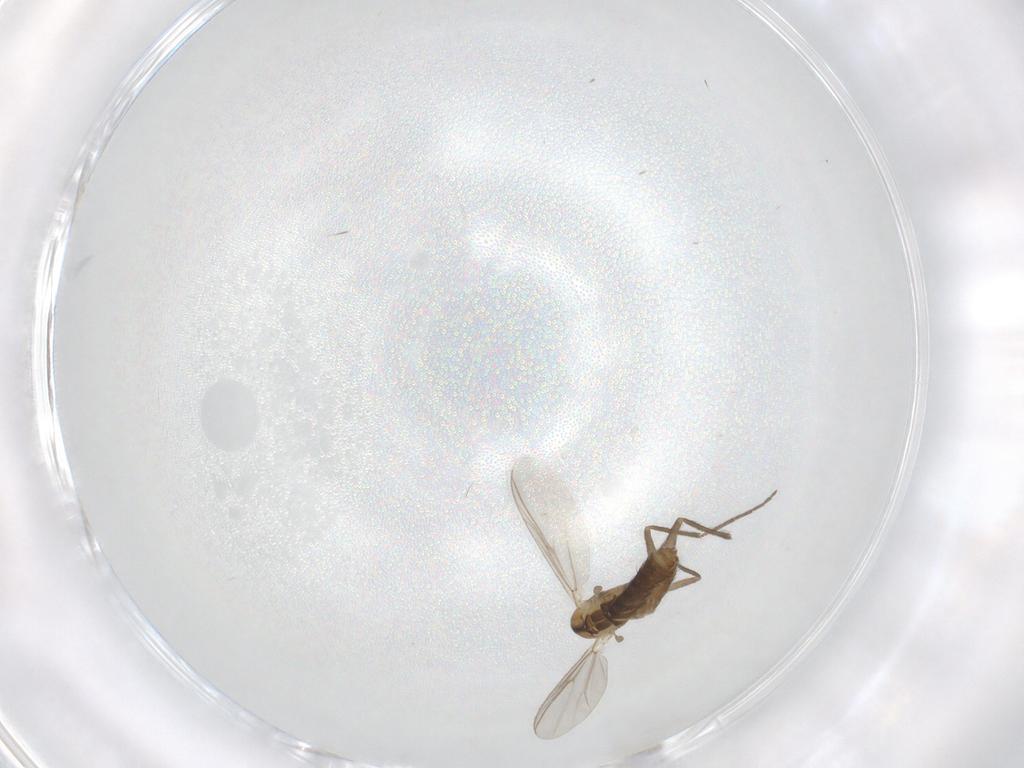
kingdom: Animalia
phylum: Arthropoda
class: Insecta
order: Diptera
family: Chironomidae
